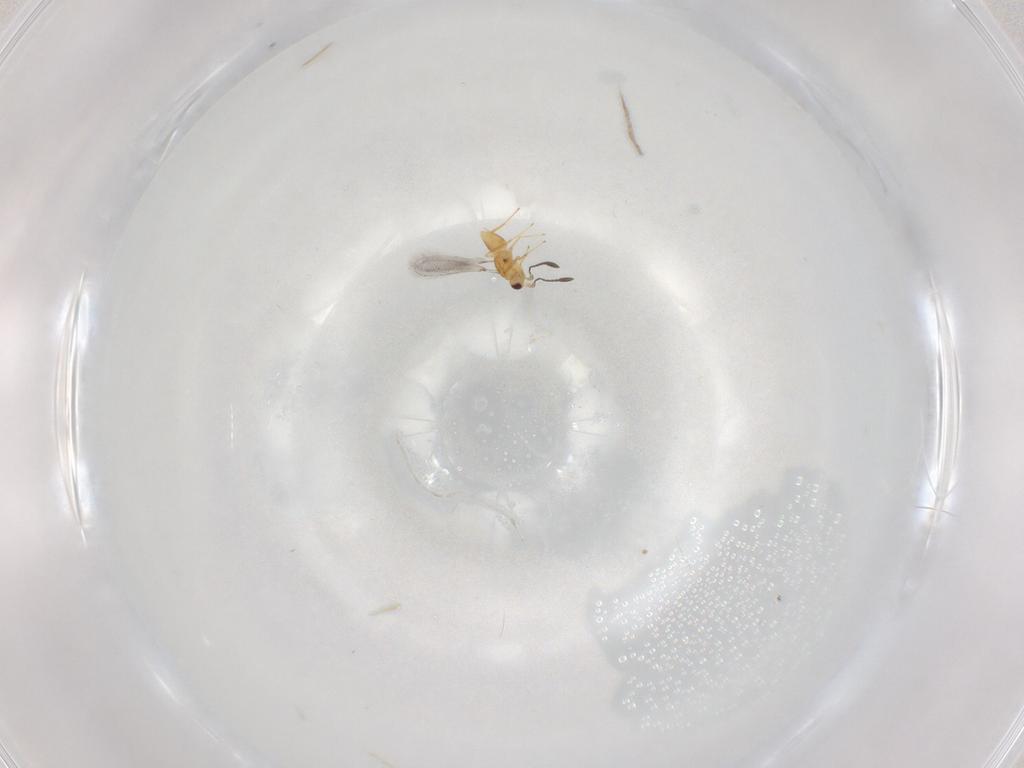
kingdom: Animalia
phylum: Arthropoda
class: Insecta
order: Hymenoptera
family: Mymaridae
